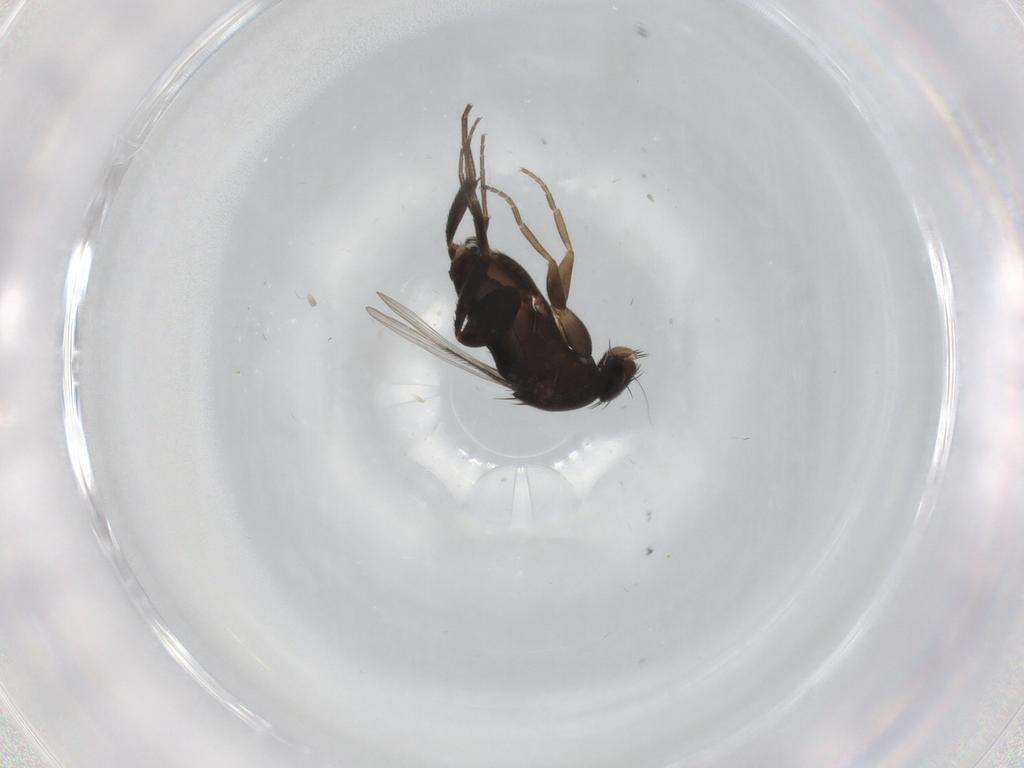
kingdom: Animalia
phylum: Arthropoda
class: Insecta
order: Diptera
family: Phoridae
